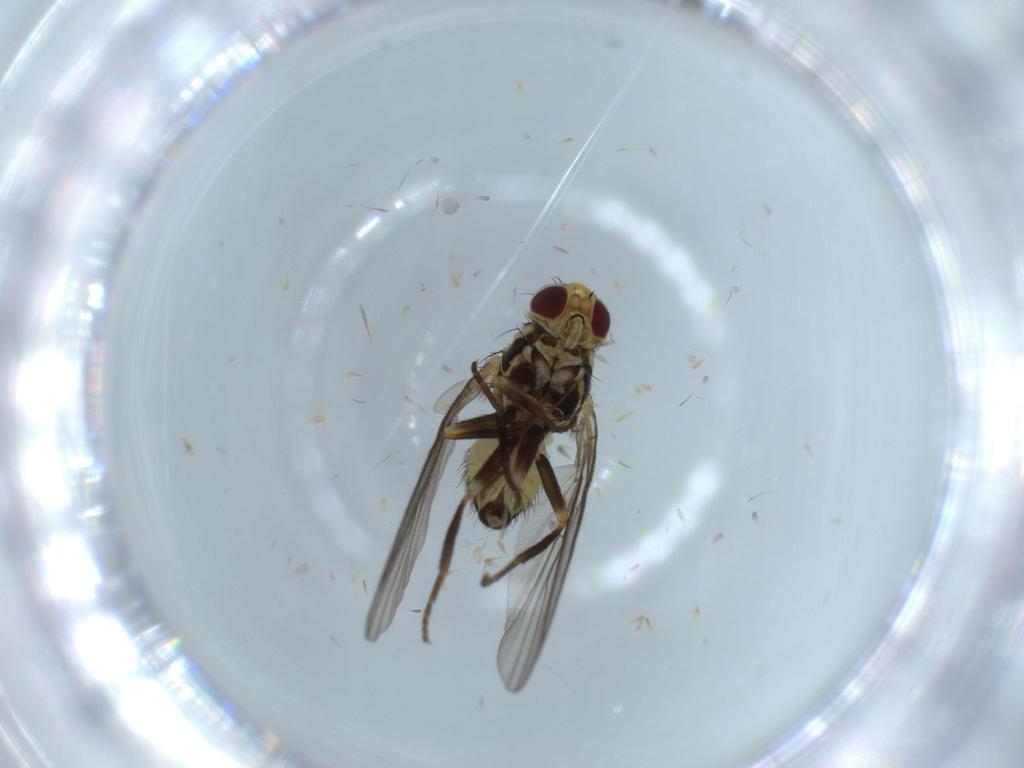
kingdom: Animalia
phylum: Arthropoda
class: Insecta
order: Diptera
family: Agromyzidae
